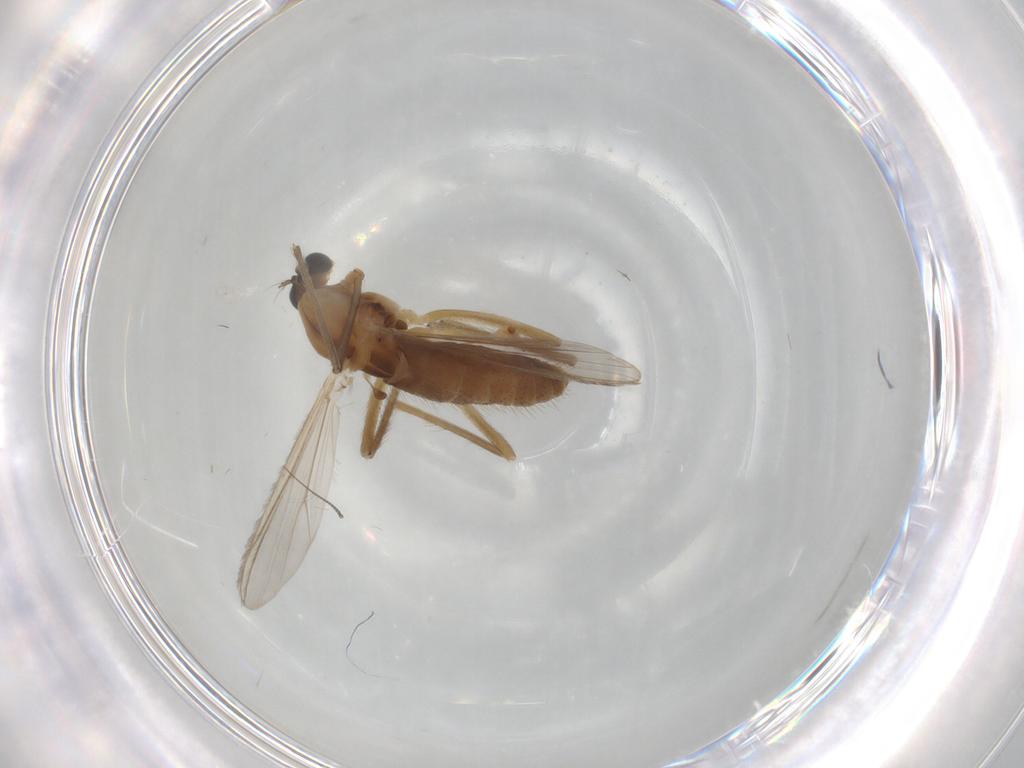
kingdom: Animalia
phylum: Arthropoda
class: Insecta
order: Diptera
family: Chironomidae
